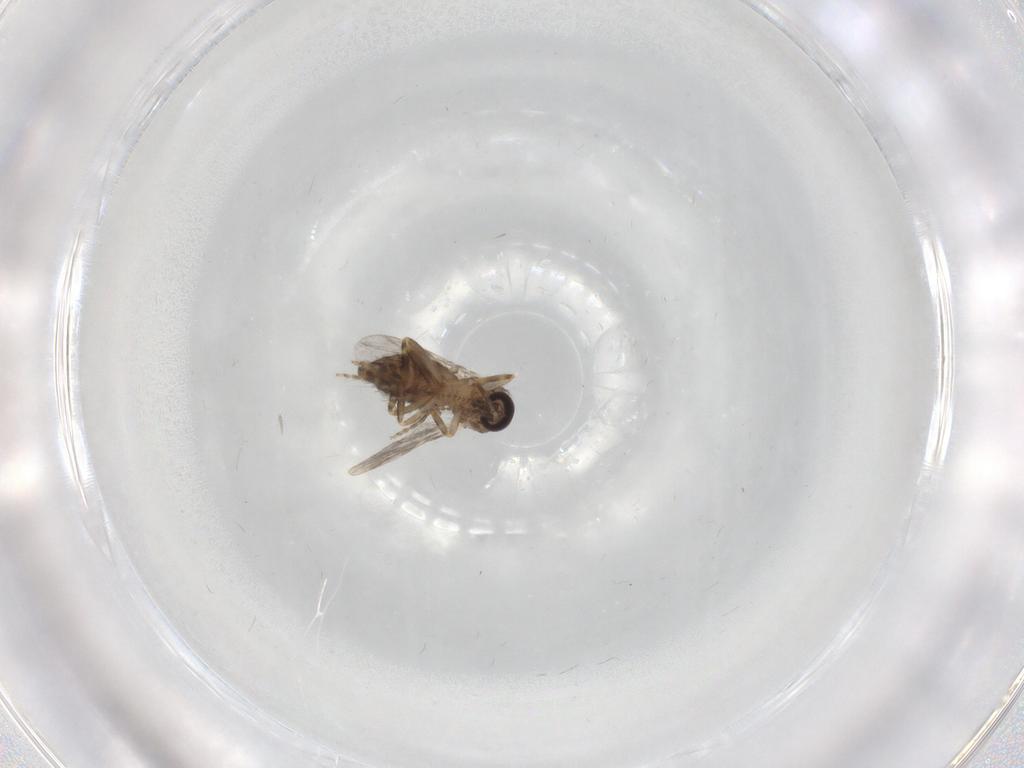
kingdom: Animalia
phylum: Arthropoda
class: Insecta
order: Diptera
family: Ceratopogonidae
